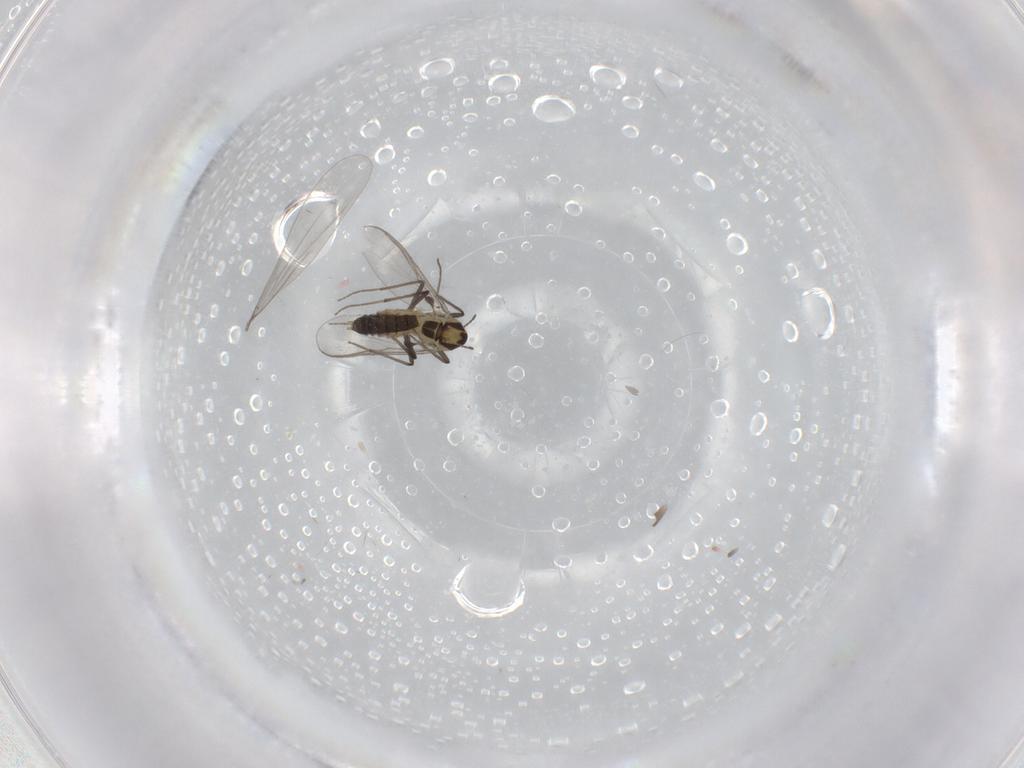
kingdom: Animalia
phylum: Arthropoda
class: Insecta
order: Diptera
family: Chironomidae
